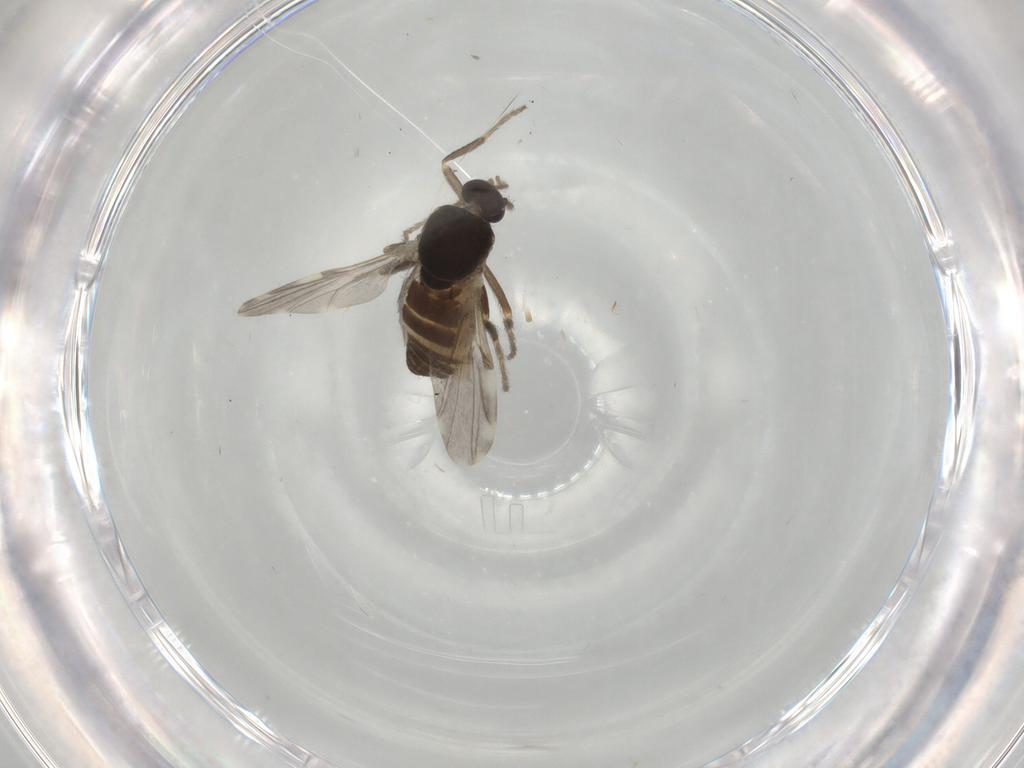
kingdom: Animalia
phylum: Arthropoda
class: Insecta
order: Diptera
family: Ceratopogonidae
